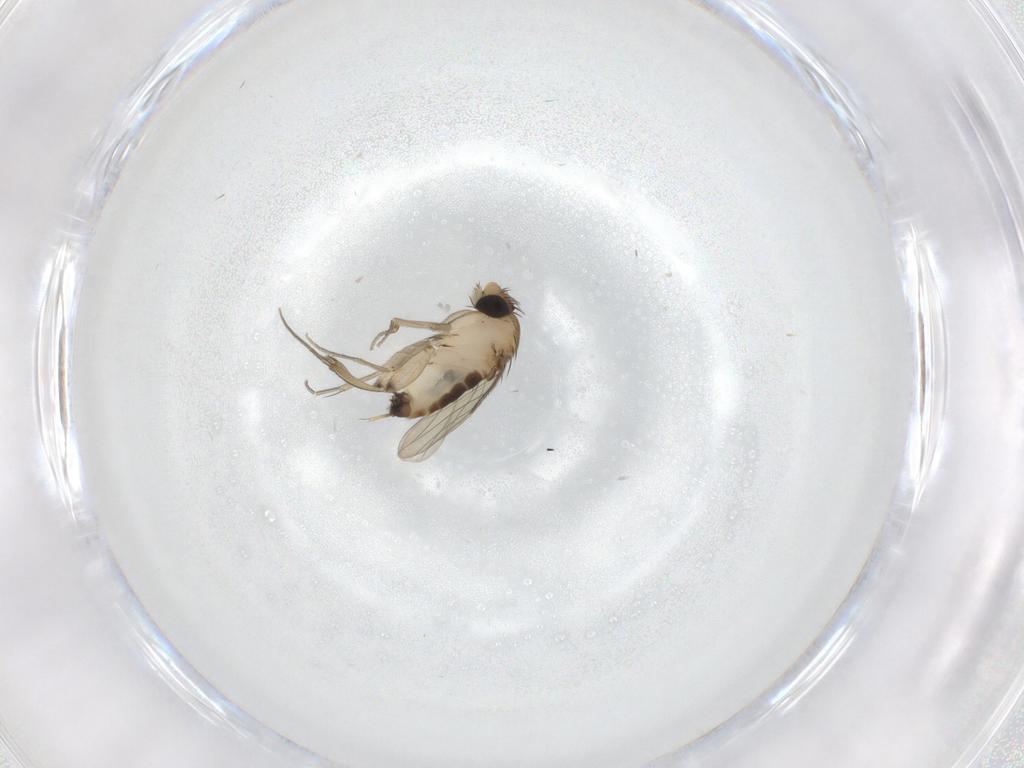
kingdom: Animalia
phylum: Arthropoda
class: Insecta
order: Diptera
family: Phoridae
